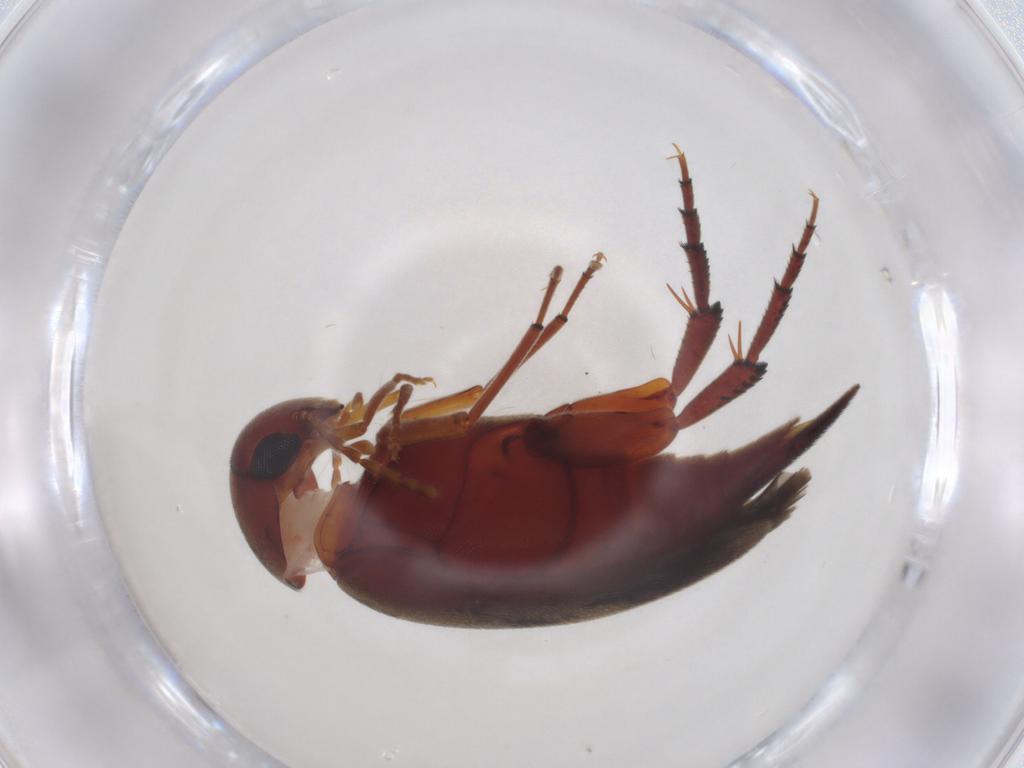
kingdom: Animalia
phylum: Arthropoda
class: Insecta
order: Coleoptera
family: Mordellidae
